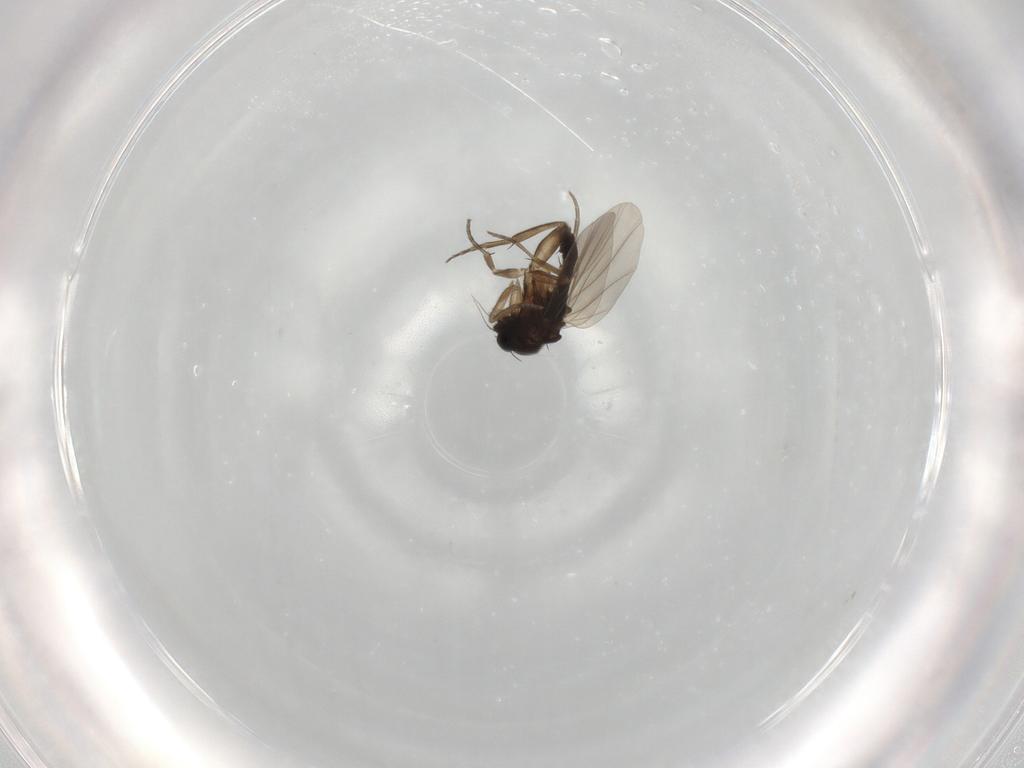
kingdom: Animalia
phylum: Arthropoda
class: Insecta
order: Diptera
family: Phoridae
